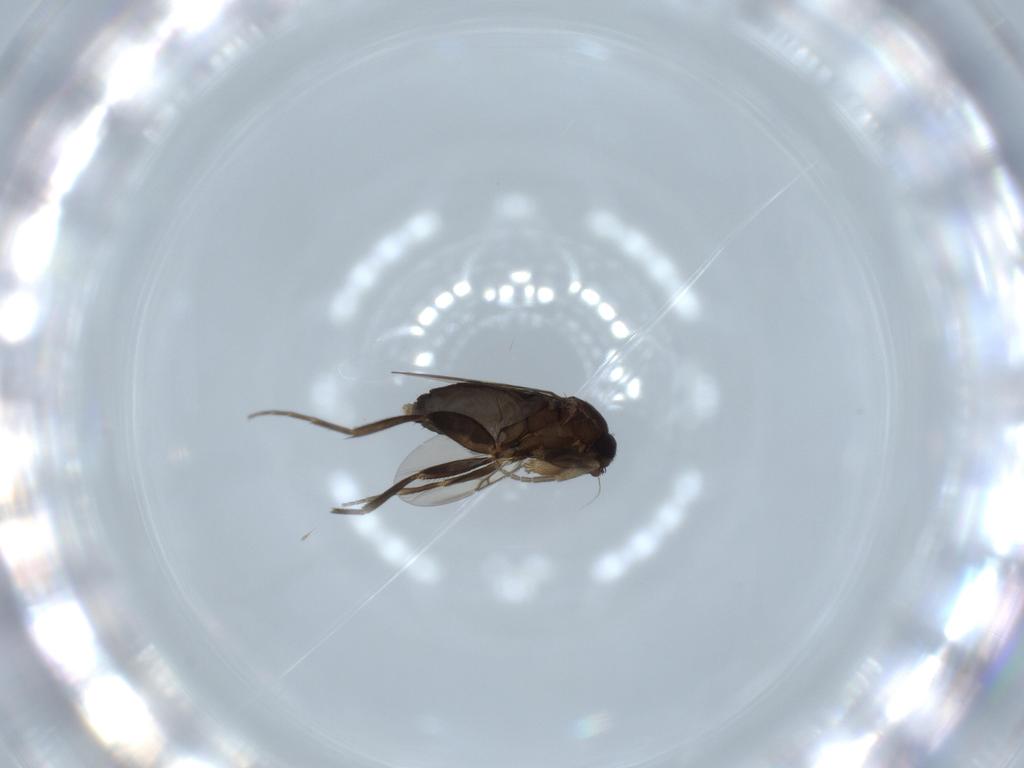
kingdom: Animalia
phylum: Arthropoda
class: Insecta
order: Diptera
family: Phoridae
